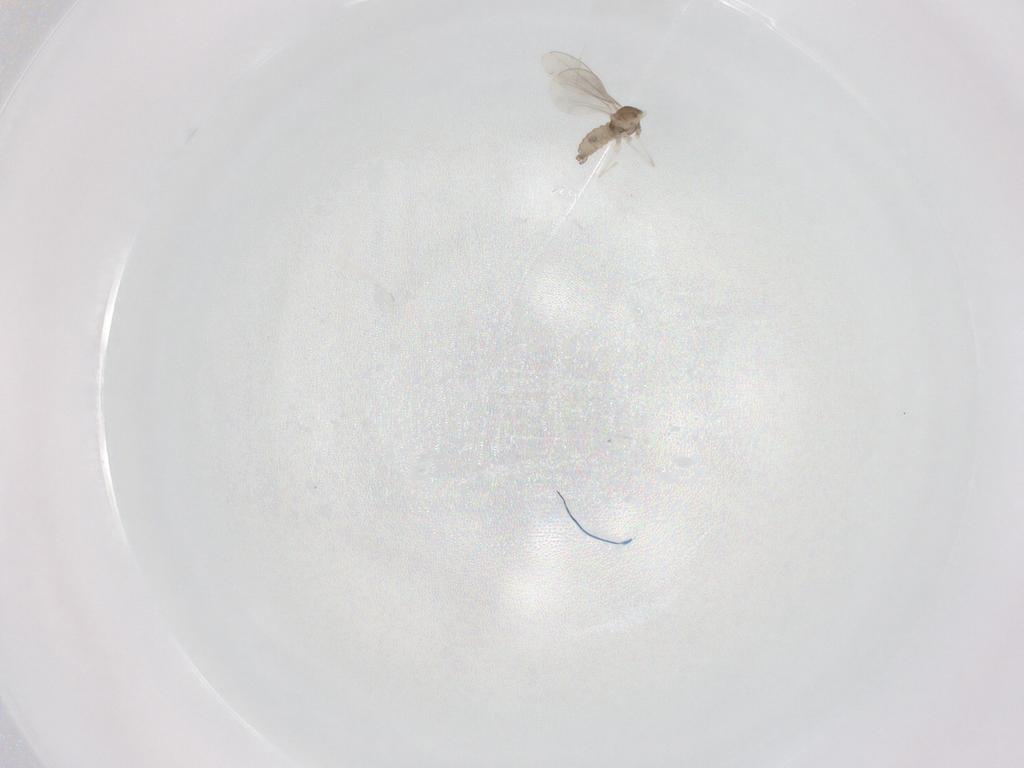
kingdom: Animalia
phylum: Arthropoda
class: Insecta
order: Diptera
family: Cecidomyiidae
